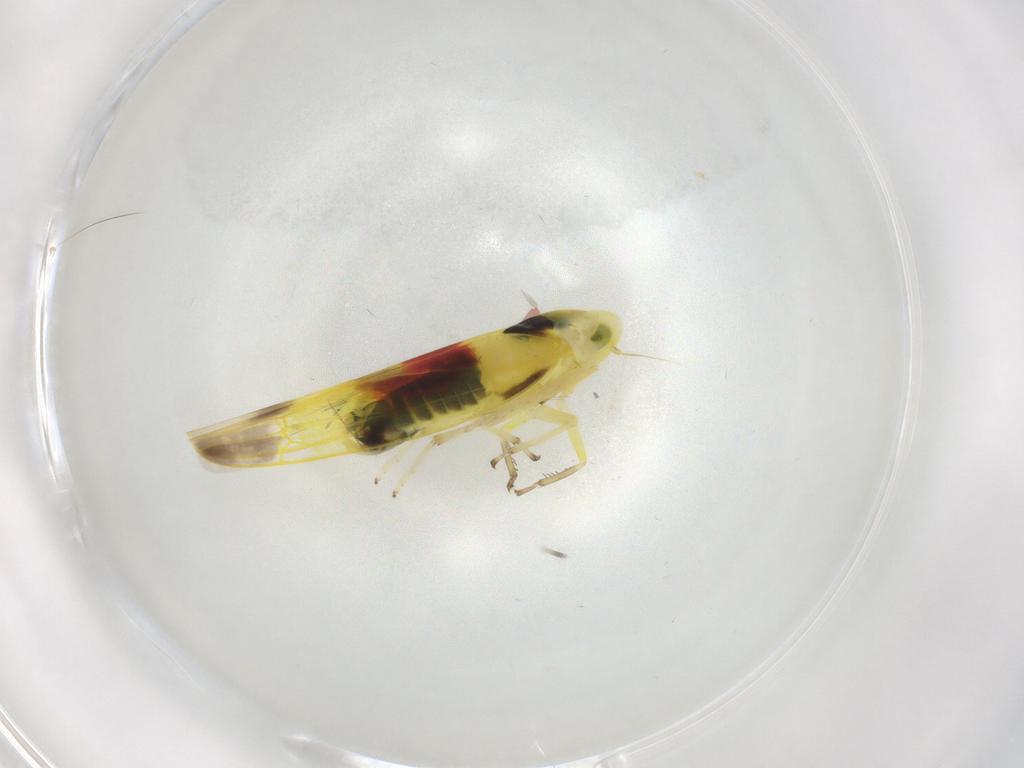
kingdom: Animalia
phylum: Arthropoda
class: Insecta
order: Hemiptera
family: Cicadellidae
